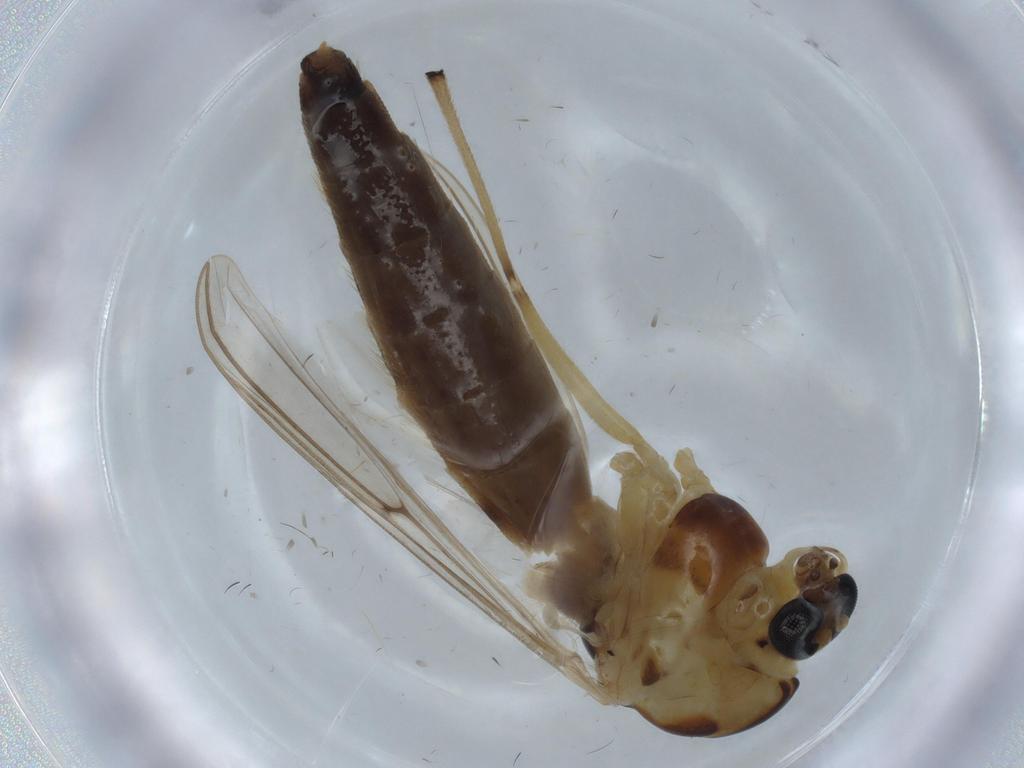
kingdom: Animalia
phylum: Arthropoda
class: Insecta
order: Diptera
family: Chironomidae
